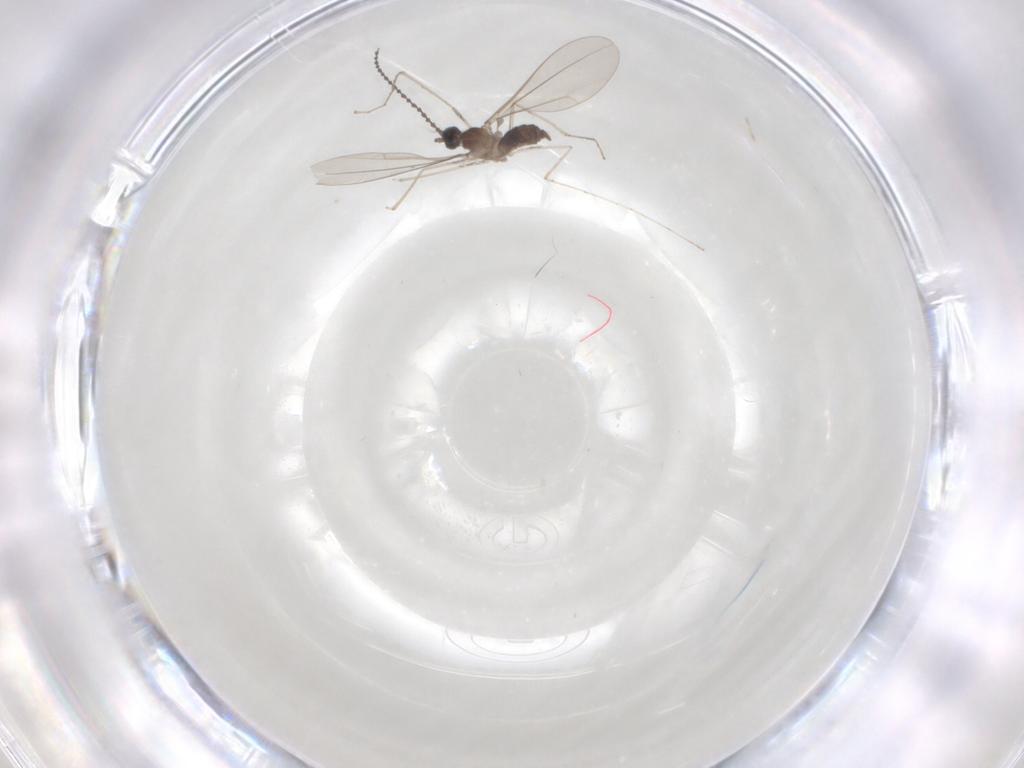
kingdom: Animalia
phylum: Arthropoda
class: Insecta
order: Diptera
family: Cecidomyiidae
